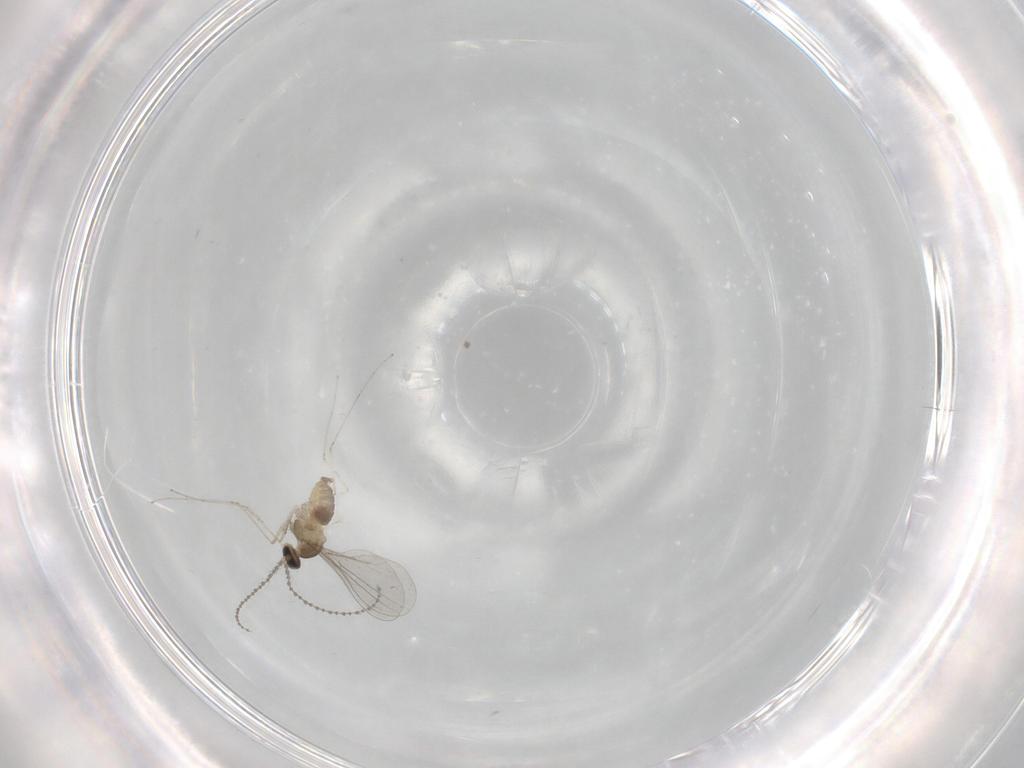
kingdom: Animalia
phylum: Arthropoda
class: Insecta
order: Diptera
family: Cecidomyiidae
